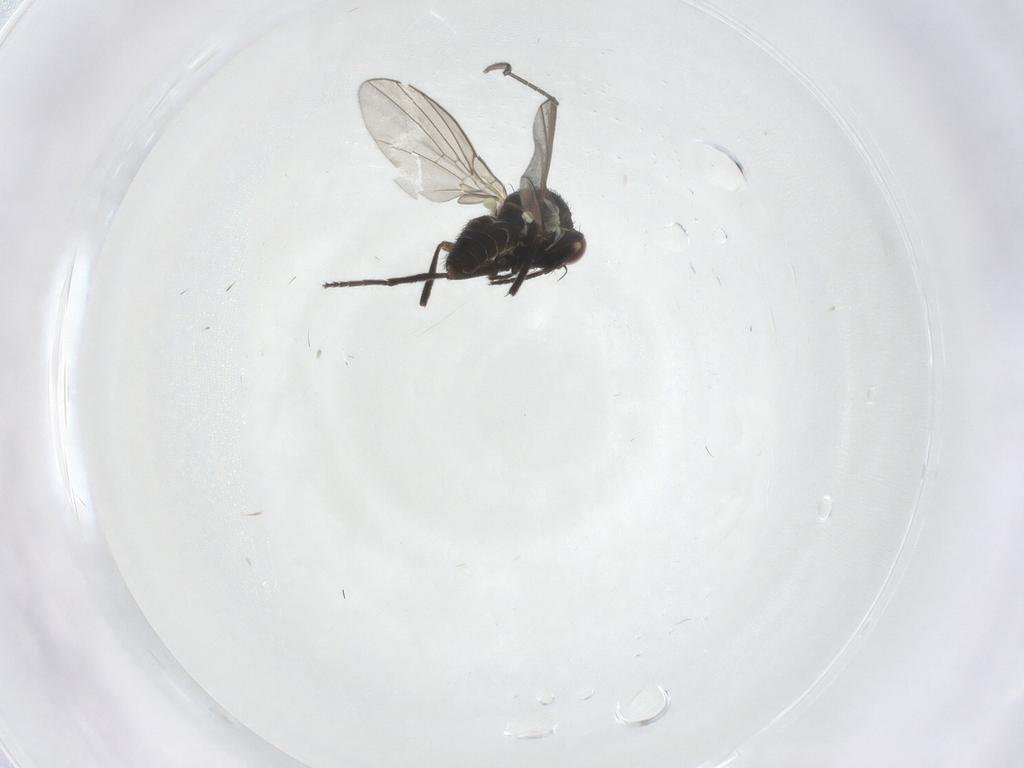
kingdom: Animalia
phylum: Arthropoda
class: Insecta
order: Diptera
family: Agromyzidae
